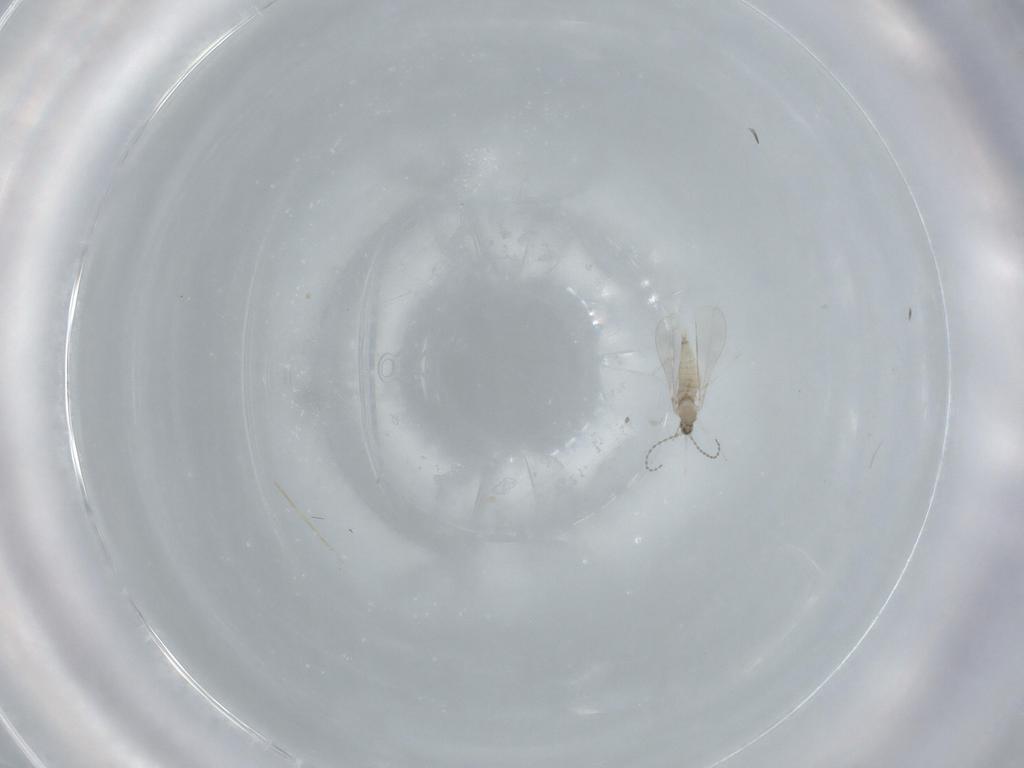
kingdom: Animalia
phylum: Arthropoda
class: Insecta
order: Diptera
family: Cecidomyiidae
